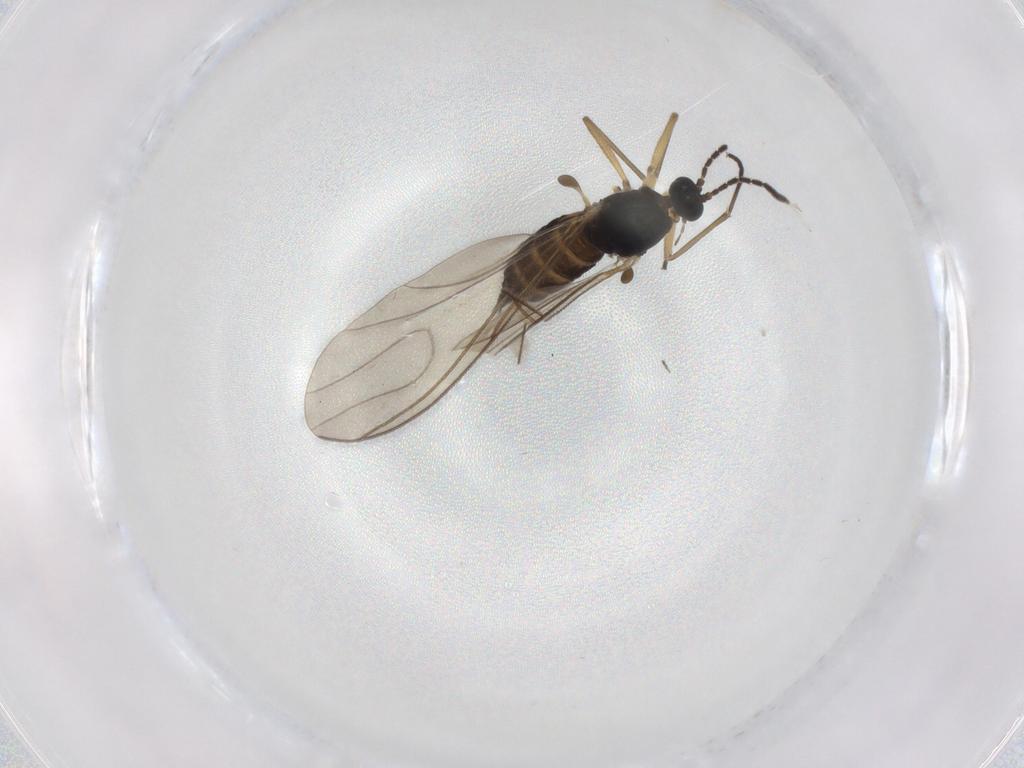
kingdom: Animalia
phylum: Arthropoda
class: Insecta
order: Diptera
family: Sciaridae
